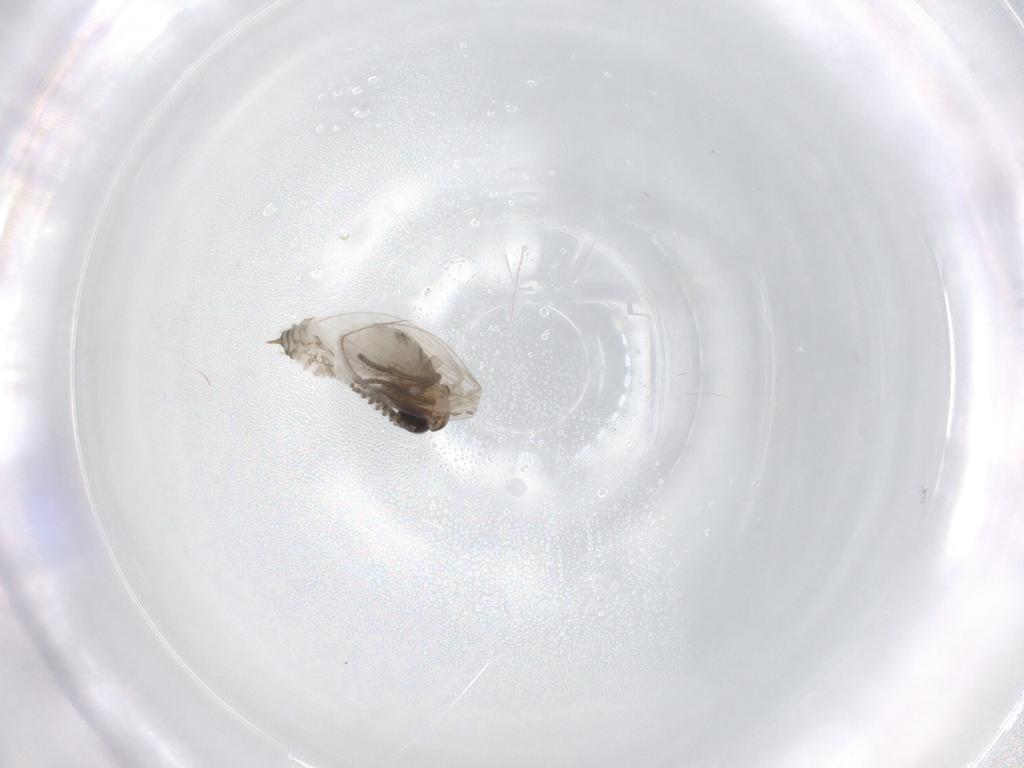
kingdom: Animalia
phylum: Arthropoda
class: Insecta
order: Diptera
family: Psychodidae
